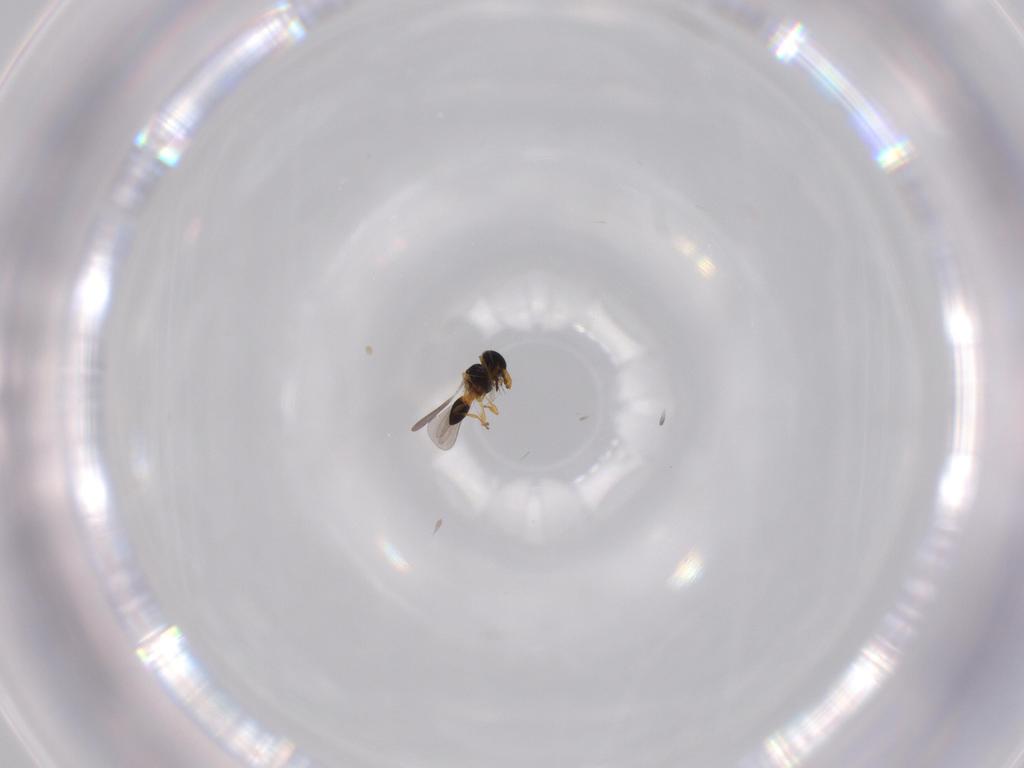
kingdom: Animalia
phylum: Arthropoda
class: Insecta
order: Hymenoptera
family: Platygastridae
